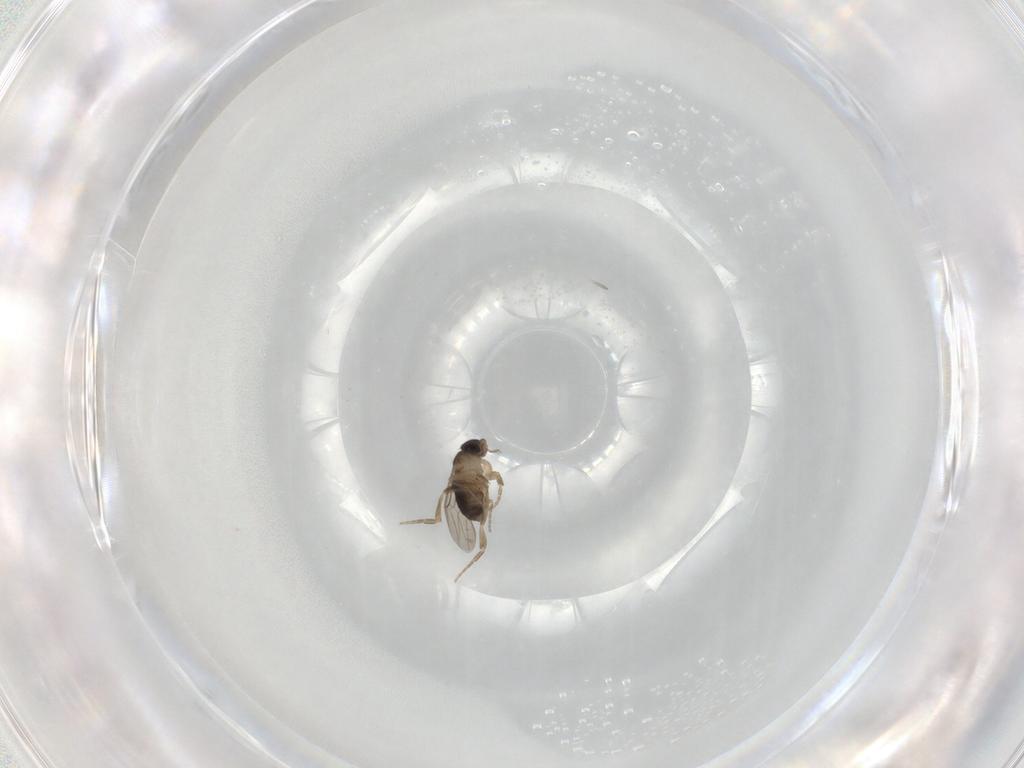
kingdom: Animalia
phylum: Arthropoda
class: Insecta
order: Diptera
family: Phoridae
